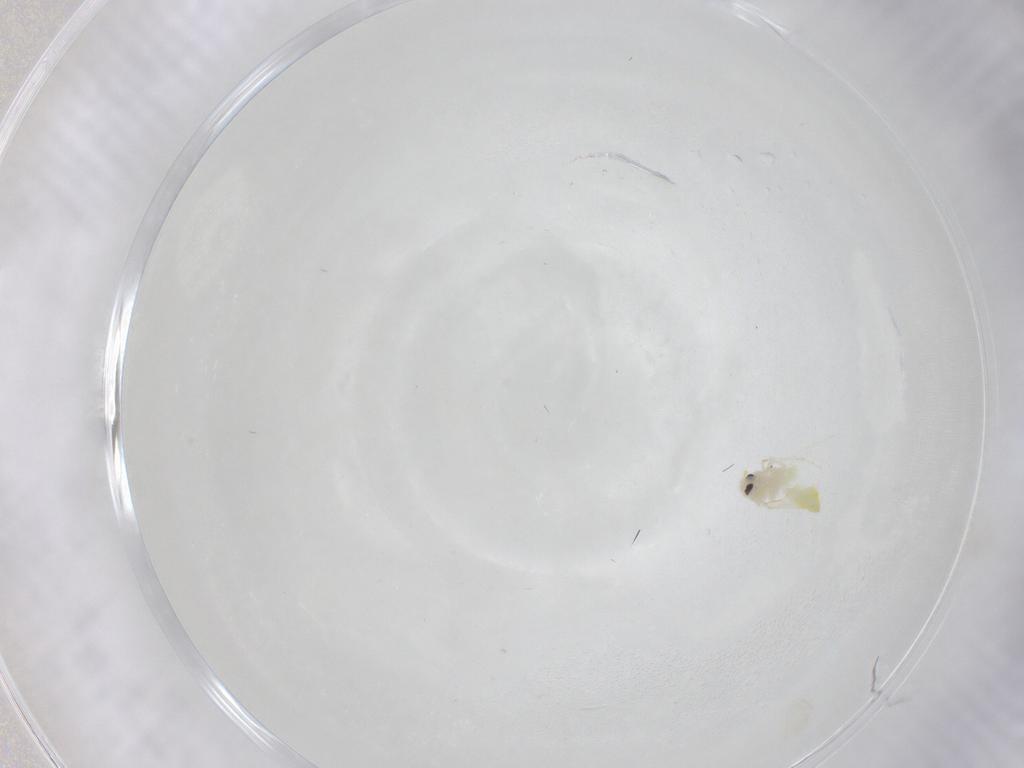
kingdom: Animalia
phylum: Arthropoda
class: Insecta
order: Hemiptera
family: Aleyrodidae
